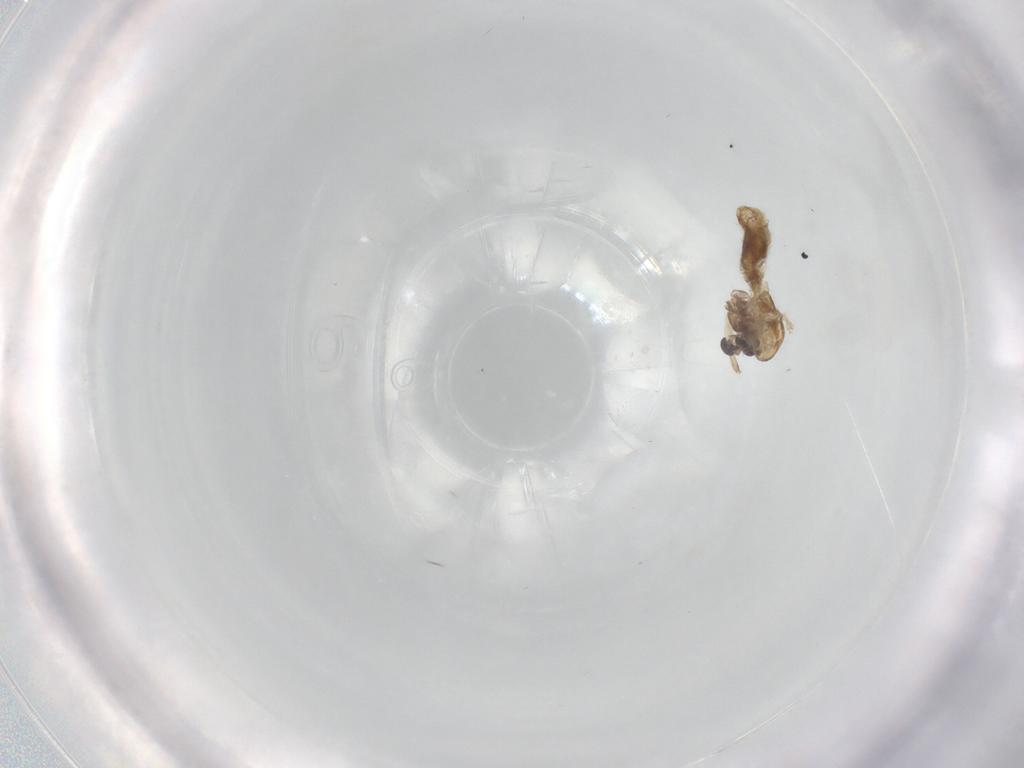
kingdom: Animalia
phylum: Arthropoda
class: Insecta
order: Diptera
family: Chironomidae
